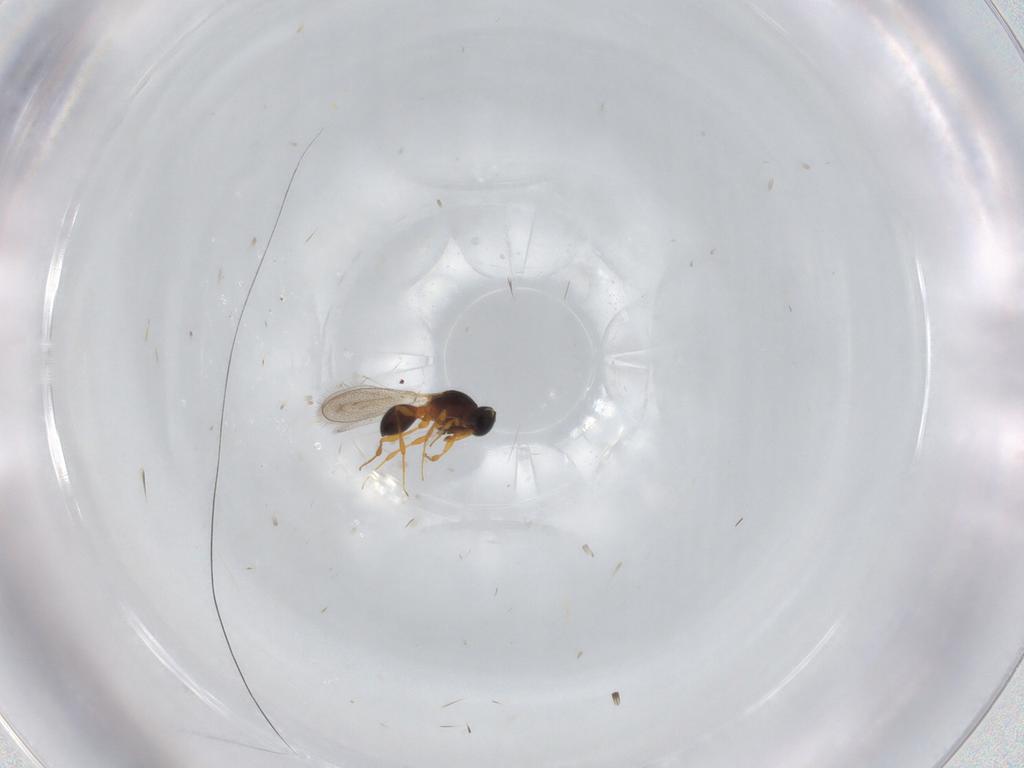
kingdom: Animalia
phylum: Arthropoda
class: Insecta
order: Hymenoptera
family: Platygastridae
